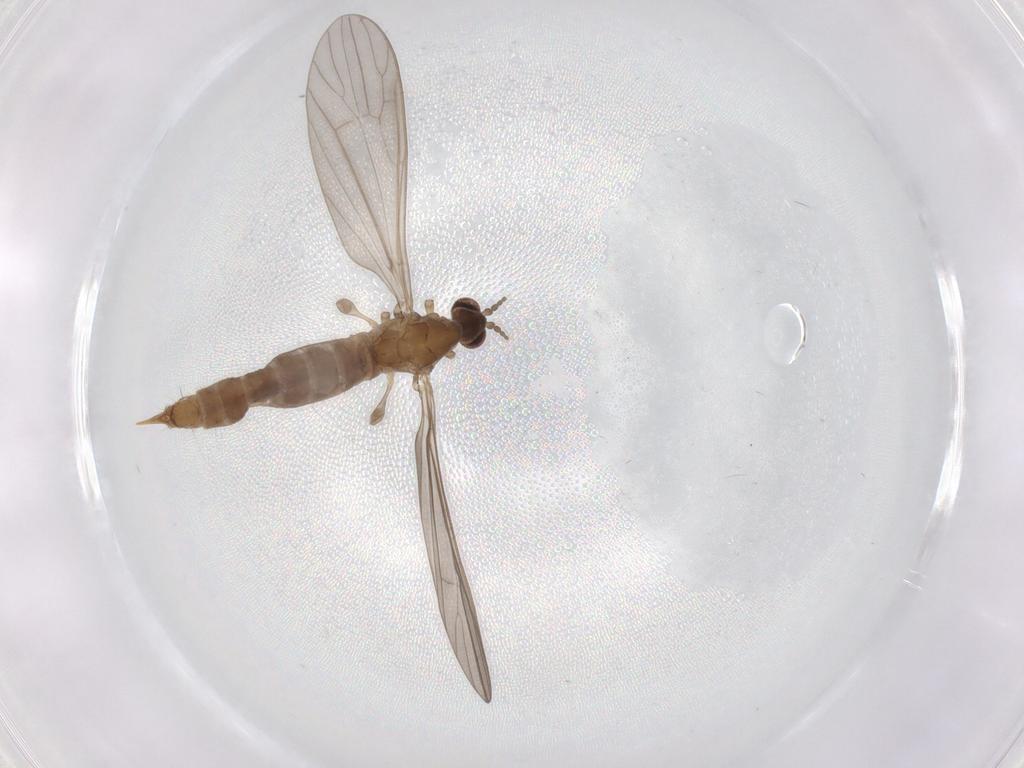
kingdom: Animalia
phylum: Arthropoda
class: Insecta
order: Diptera
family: Limoniidae
